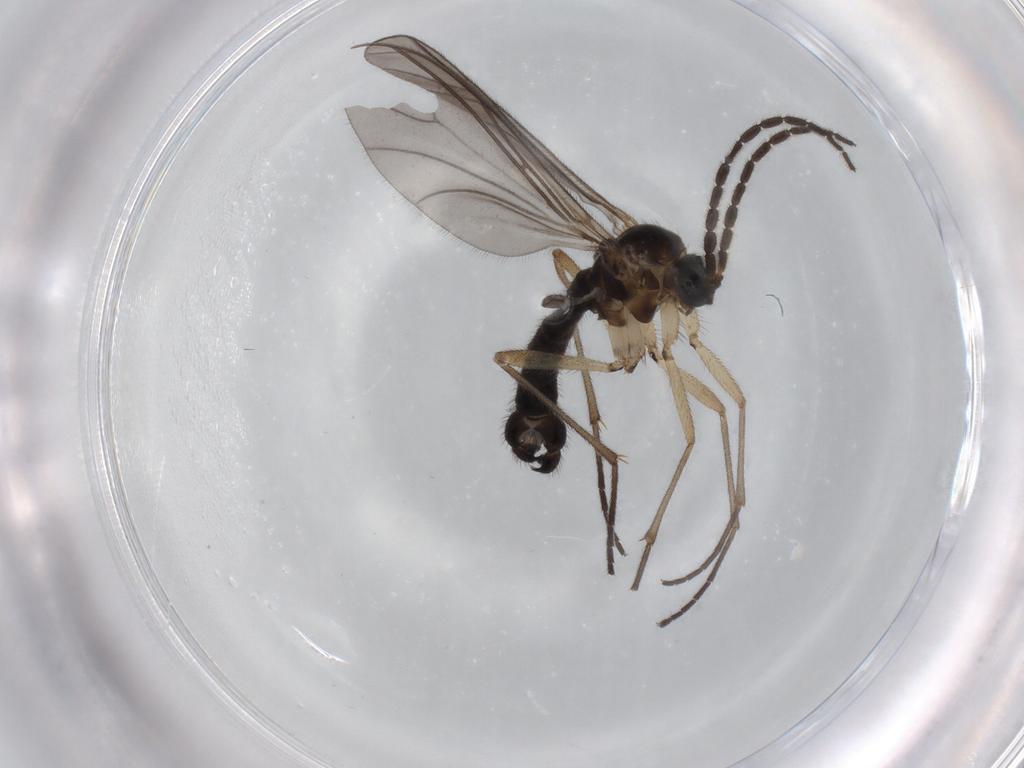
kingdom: Animalia
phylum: Arthropoda
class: Insecta
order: Diptera
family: Sciaridae
